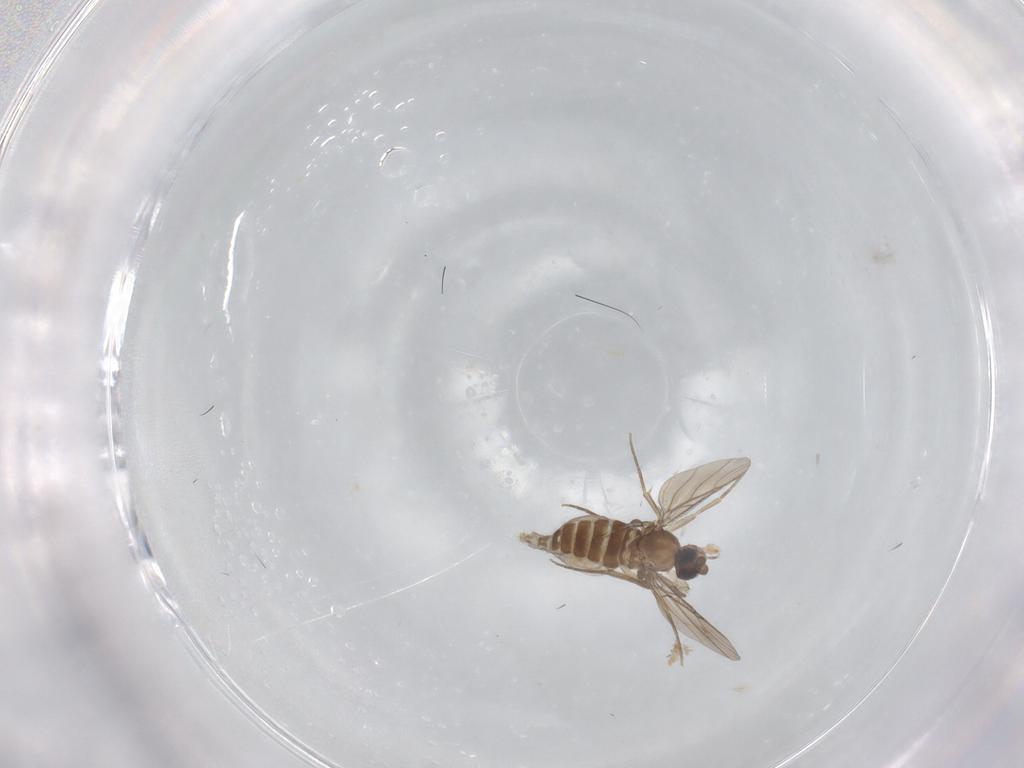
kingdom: Animalia
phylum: Arthropoda
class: Insecta
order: Diptera
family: Phoridae
